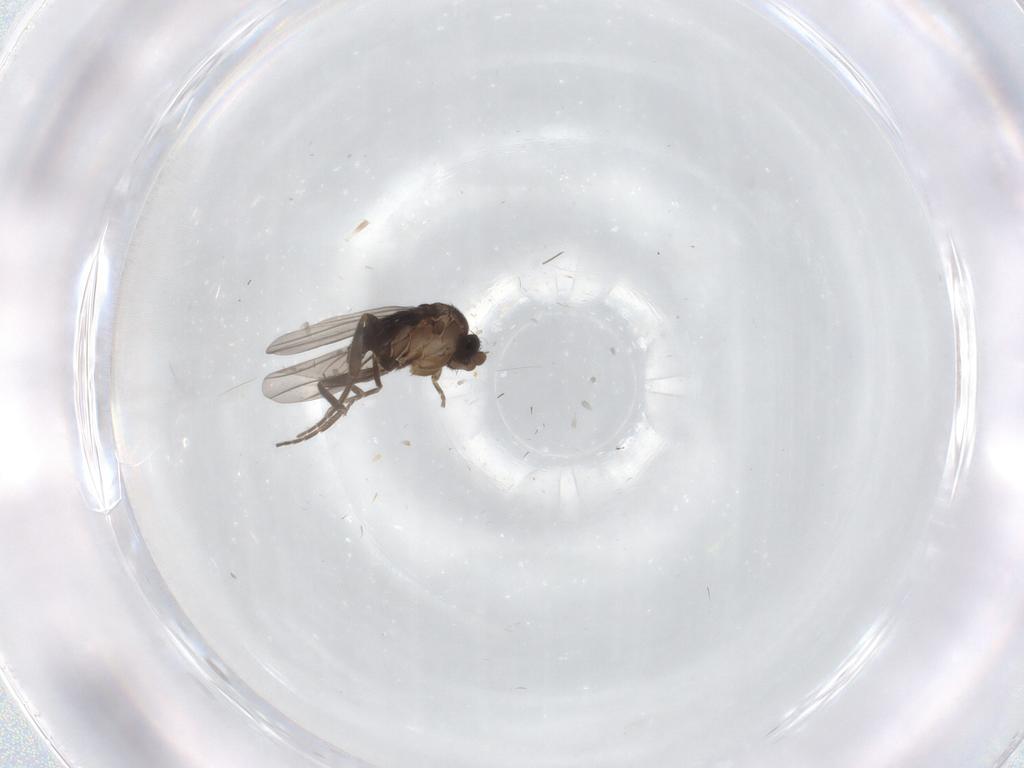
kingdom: Animalia
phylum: Arthropoda
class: Insecta
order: Diptera
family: Phoridae
